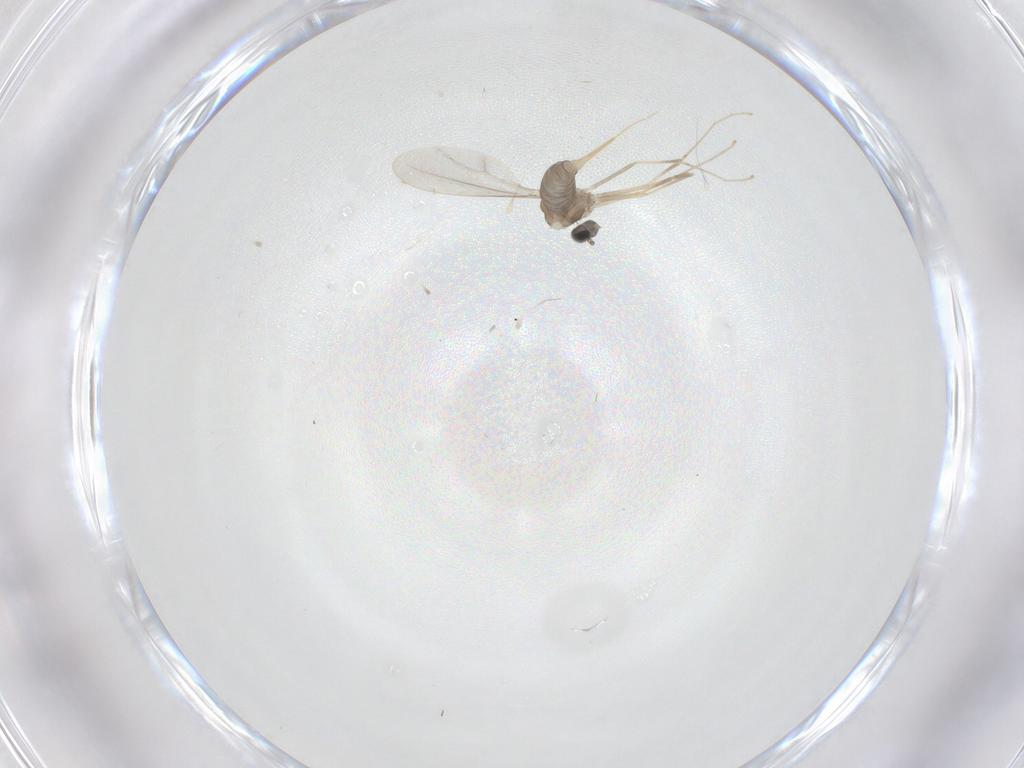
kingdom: Animalia
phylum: Arthropoda
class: Insecta
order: Diptera
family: Cecidomyiidae
